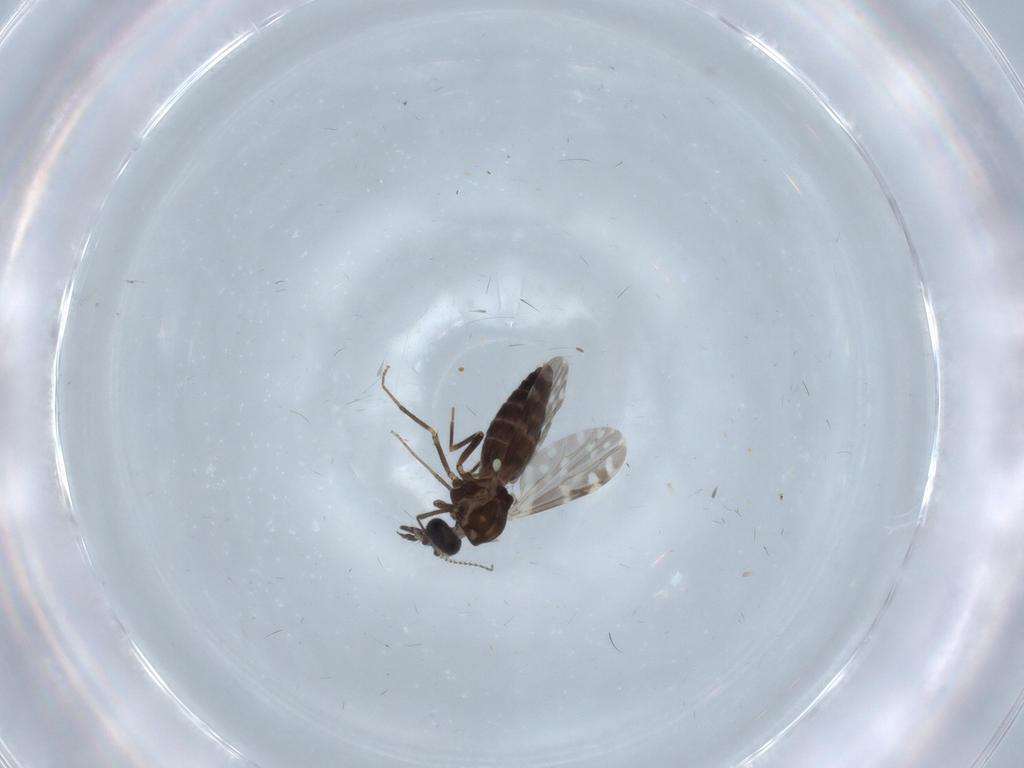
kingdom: Animalia
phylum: Arthropoda
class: Insecta
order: Diptera
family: Ceratopogonidae
